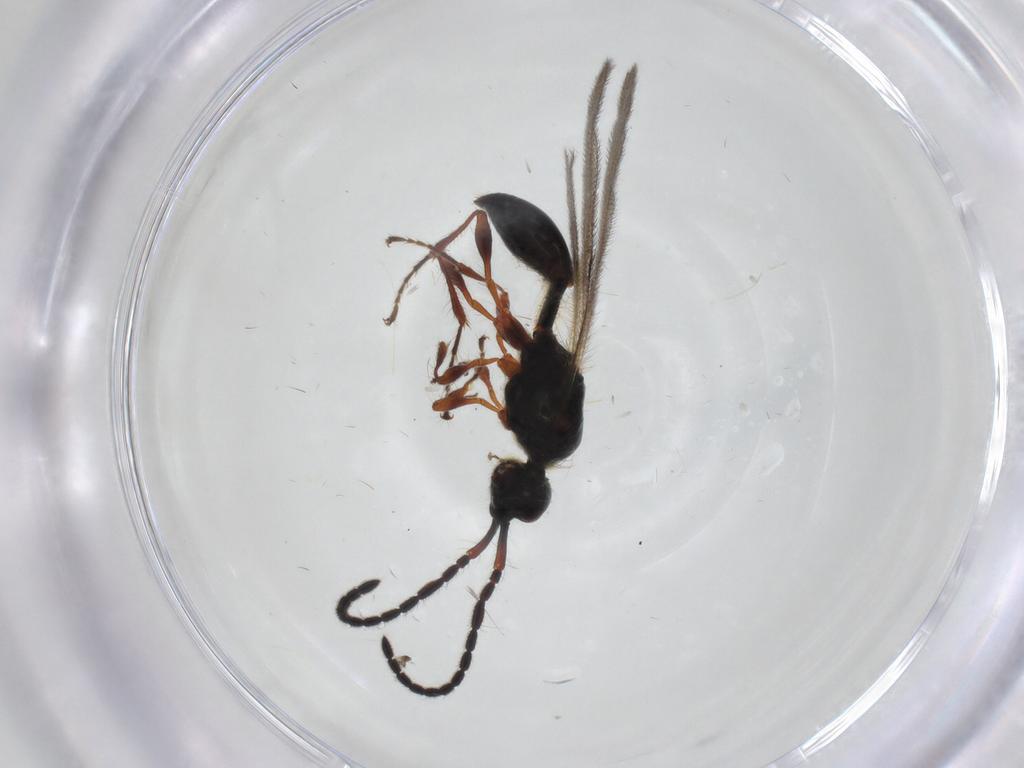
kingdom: Animalia
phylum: Arthropoda
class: Insecta
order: Hymenoptera
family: Diapriidae
